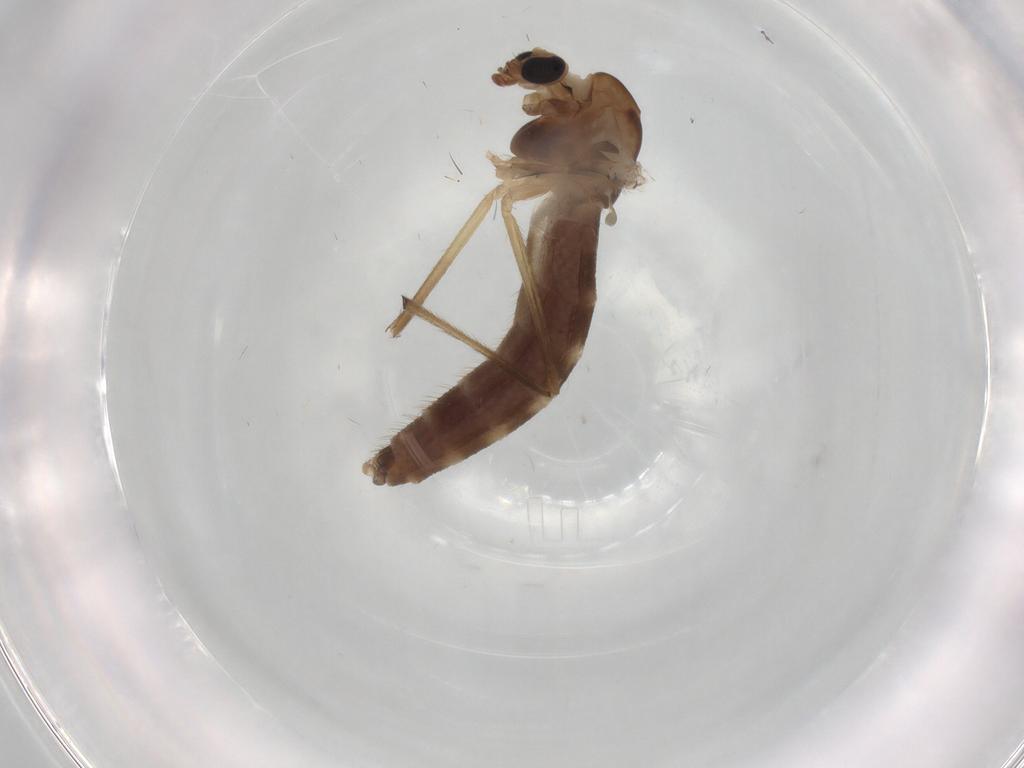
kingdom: Animalia
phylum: Arthropoda
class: Insecta
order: Diptera
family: Chironomidae
